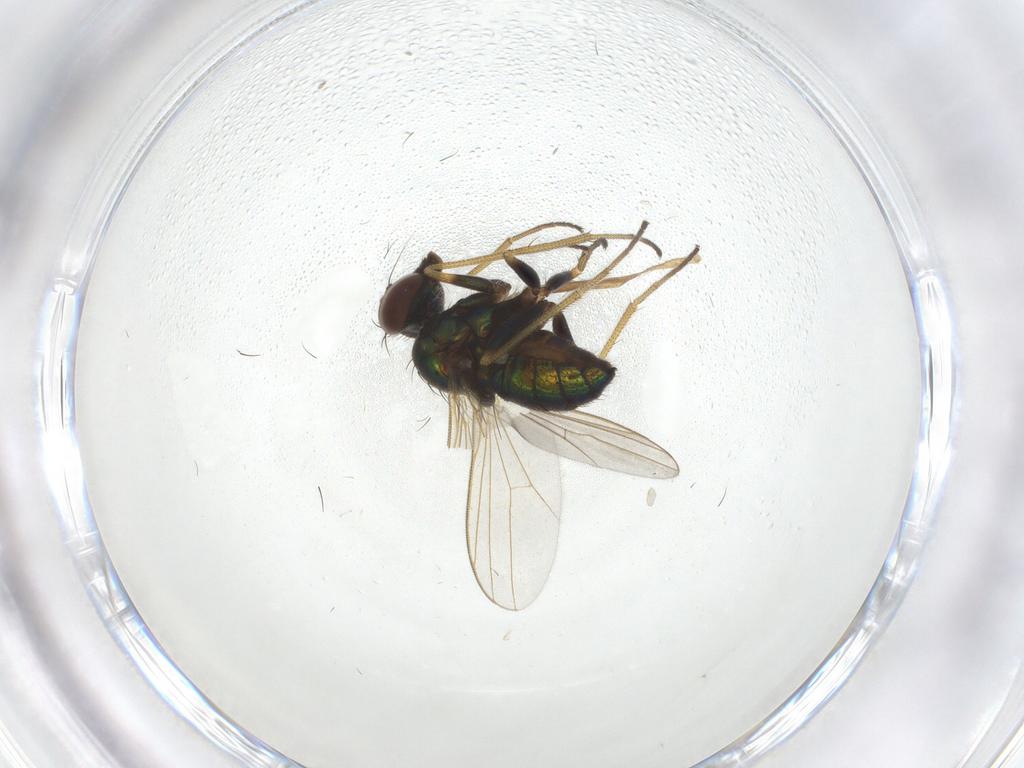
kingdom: Animalia
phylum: Arthropoda
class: Insecta
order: Diptera
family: Dolichopodidae
